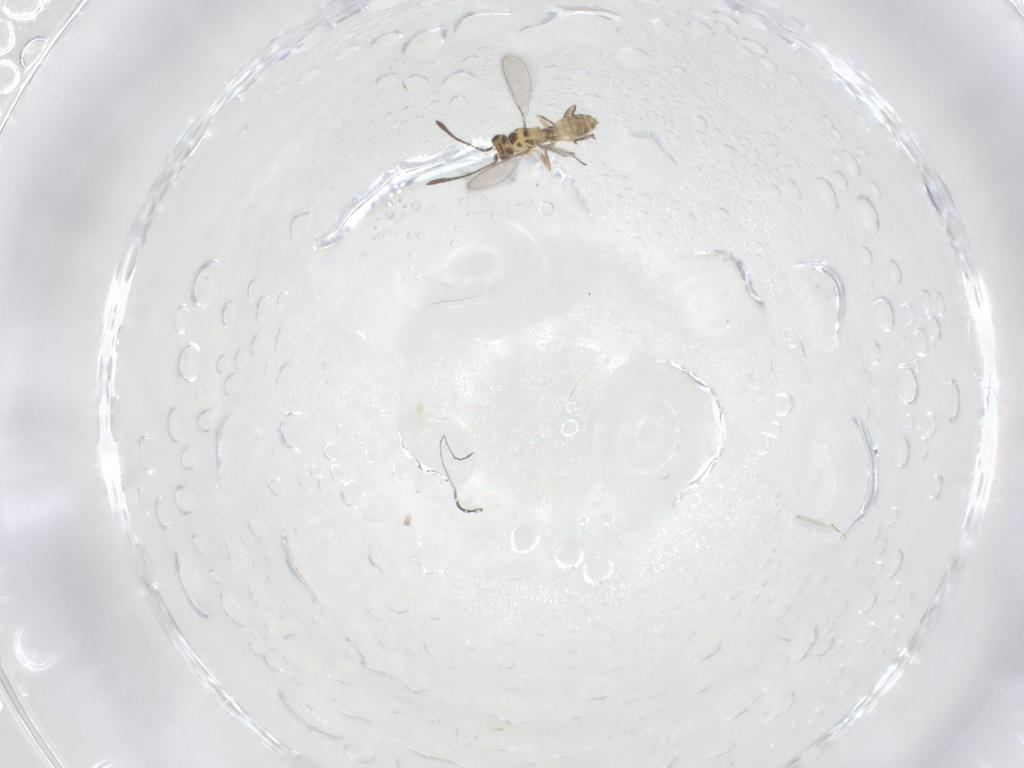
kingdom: Animalia
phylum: Arthropoda
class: Insecta
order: Hymenoptera
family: Mymaridae
